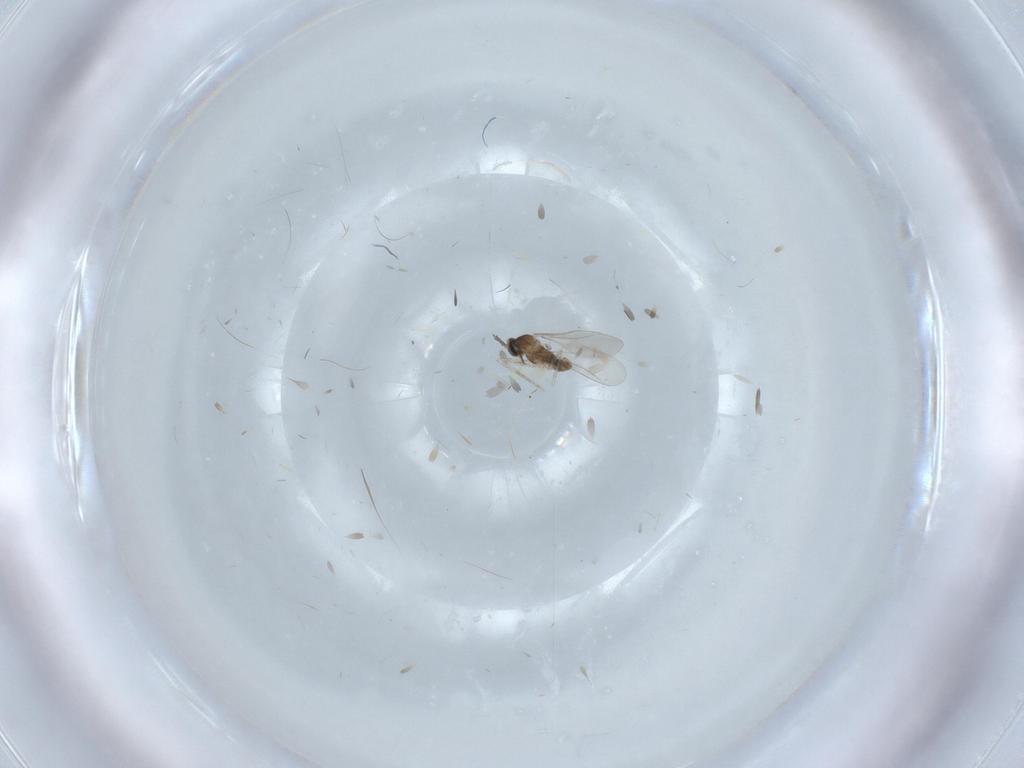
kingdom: Animalia
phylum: Arthropoda
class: Insecta
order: Diptera
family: Cecidomyiidae
